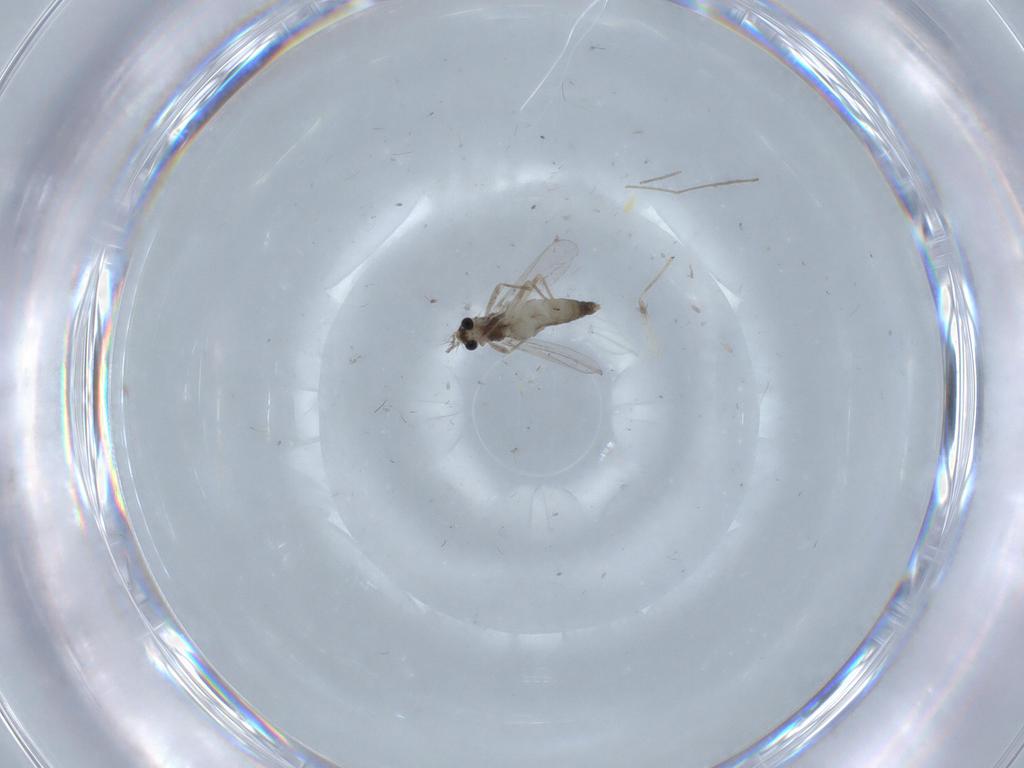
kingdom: Animalia
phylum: Arthropoda
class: Insecta
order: Diptera
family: Chironomidae
